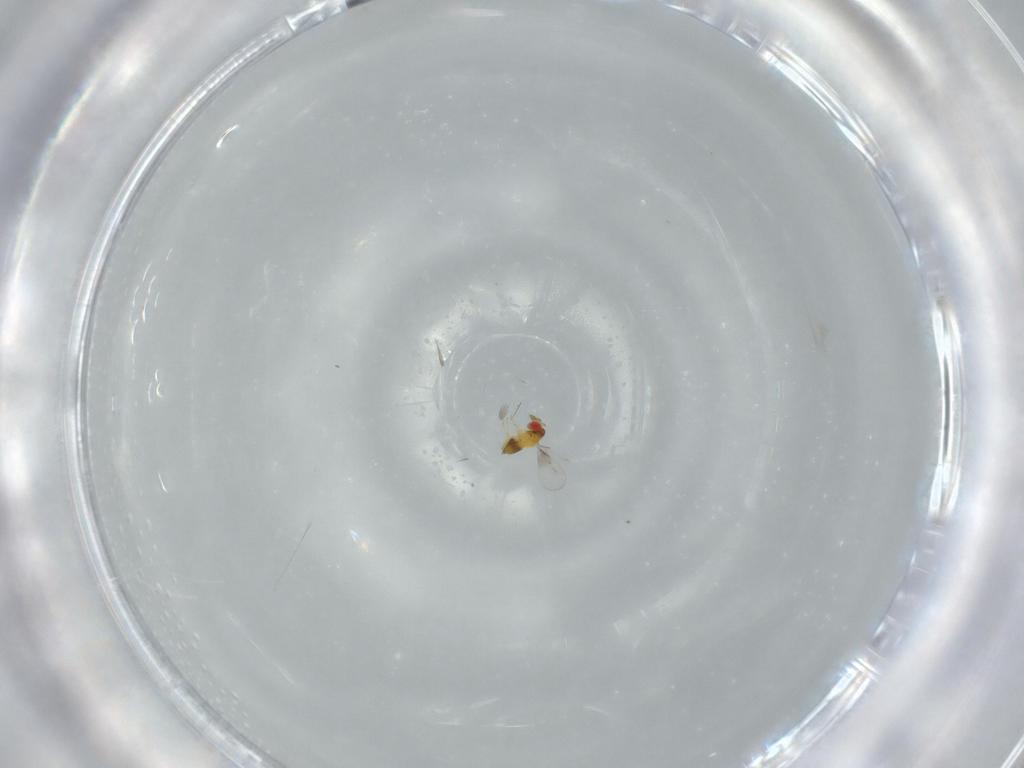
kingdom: Animalia
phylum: Arthropoda
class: Insecta
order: Hymenoptera
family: Trichogrammatidae
